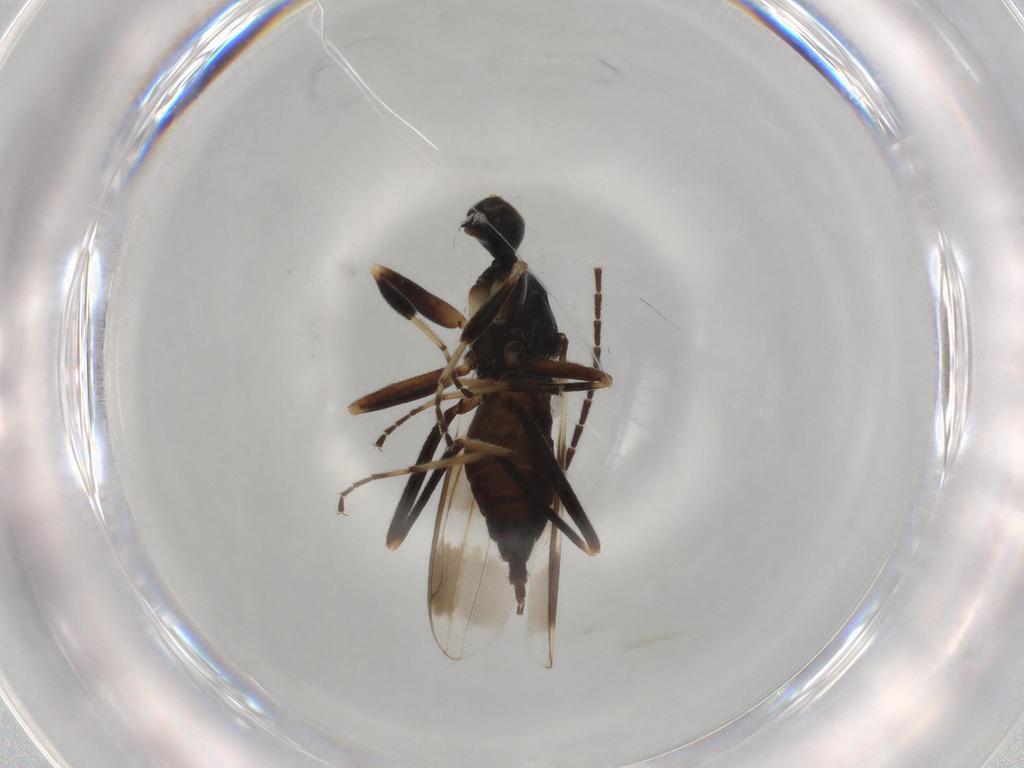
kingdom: Animalia
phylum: Arthropoda
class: Insecta
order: Diptera
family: Hybotidae
